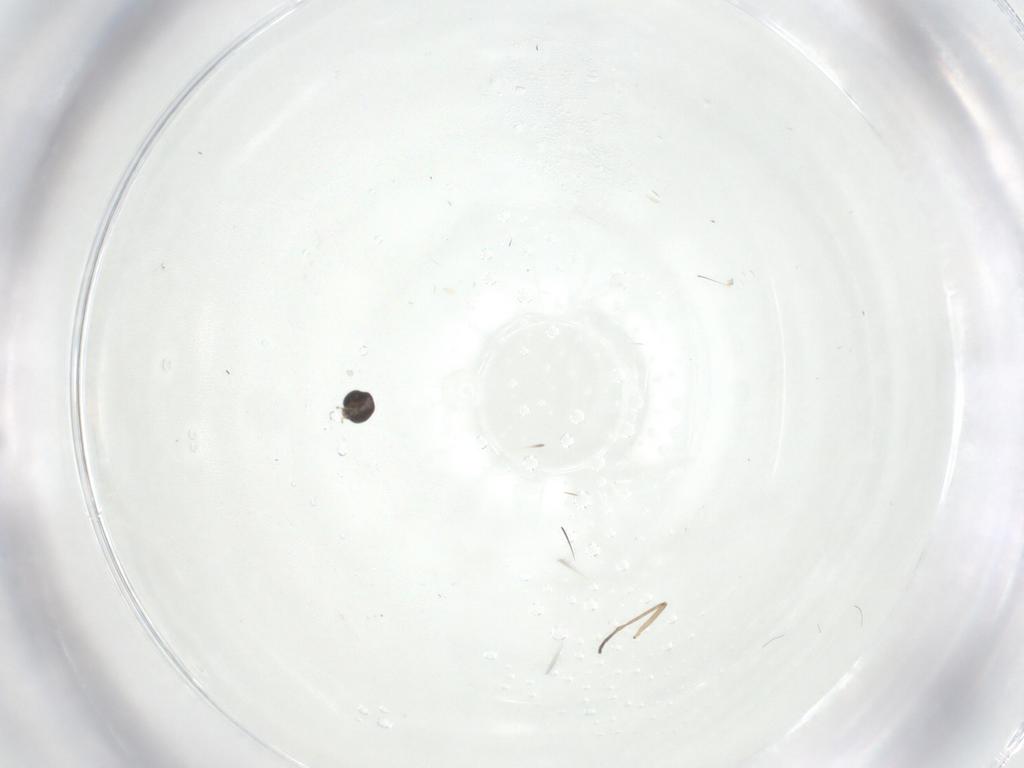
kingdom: Animalia
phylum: Arthropoda
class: Insecta
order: Diptera
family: Sciaridae
